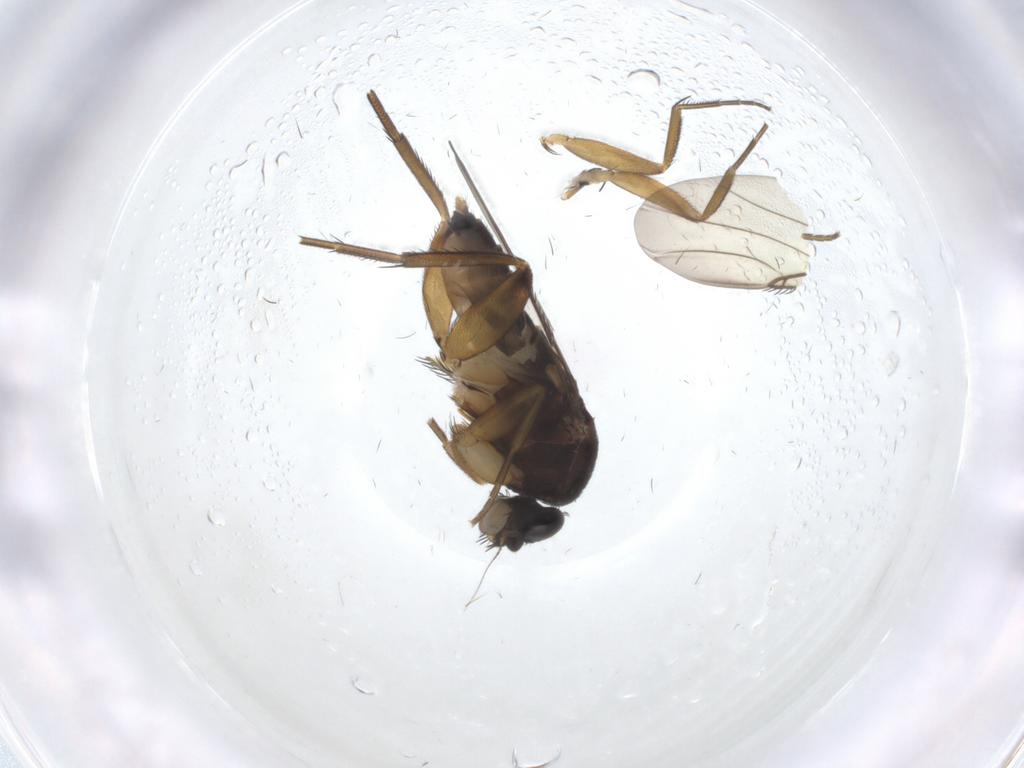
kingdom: Animalia
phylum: Arthropoda
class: Insecta
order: Diptera
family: Phoridae
